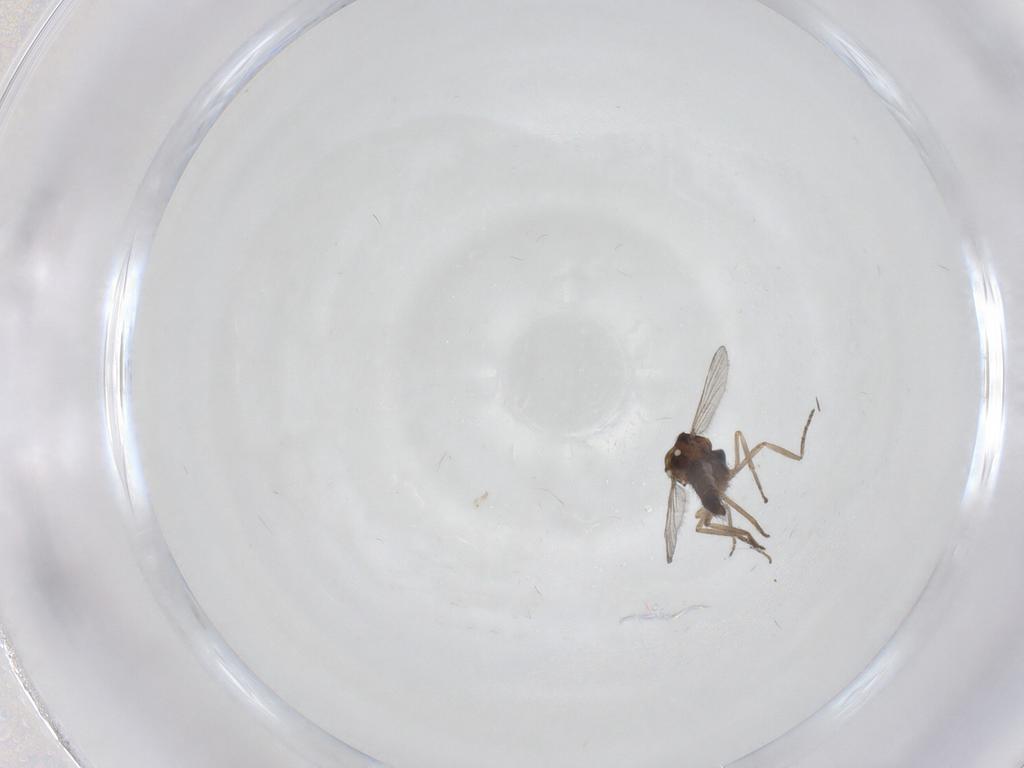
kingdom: Animalia
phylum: Arthropoda
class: Insecta
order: Diptera
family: Ceratopogonidae
